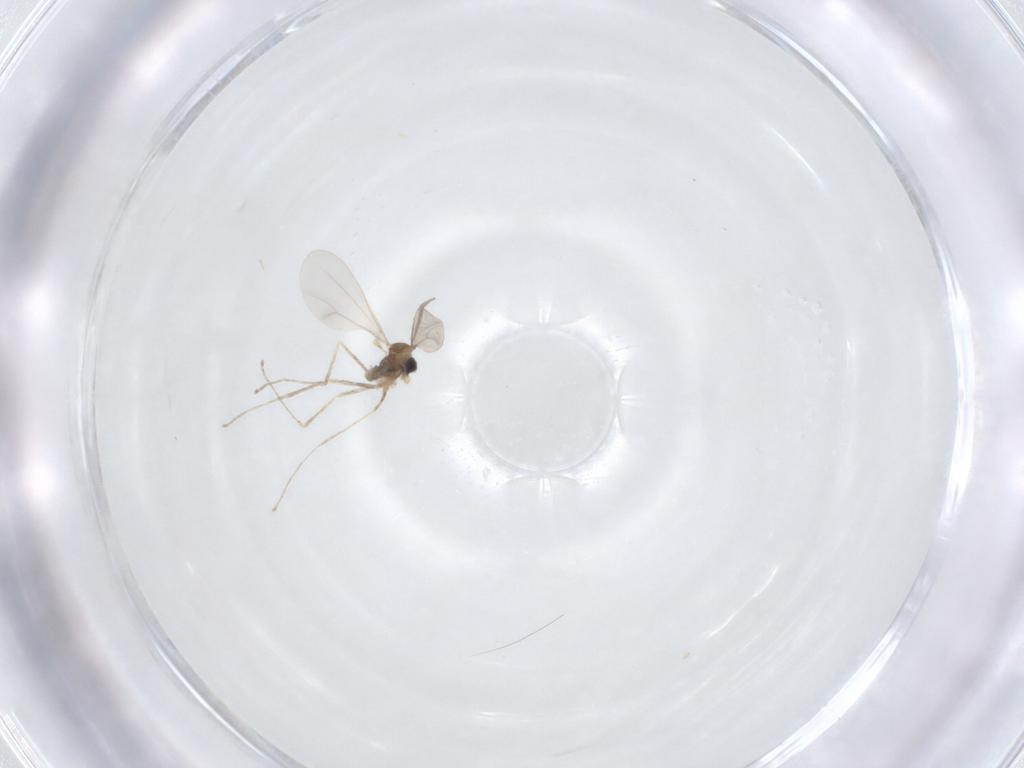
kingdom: Animalia
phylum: Arthropoda
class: Insecta
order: Diptera
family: Cecidomyiidae
